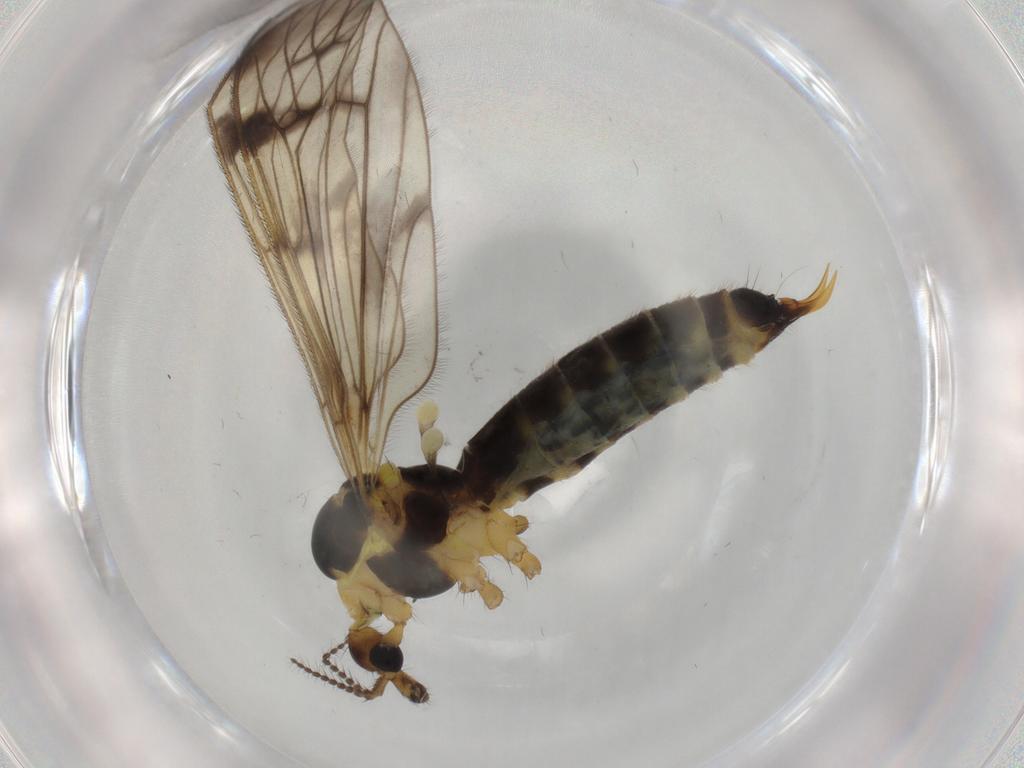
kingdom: Animalia
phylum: Arthropoda
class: Insecta
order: Diptera
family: Limoniidae
